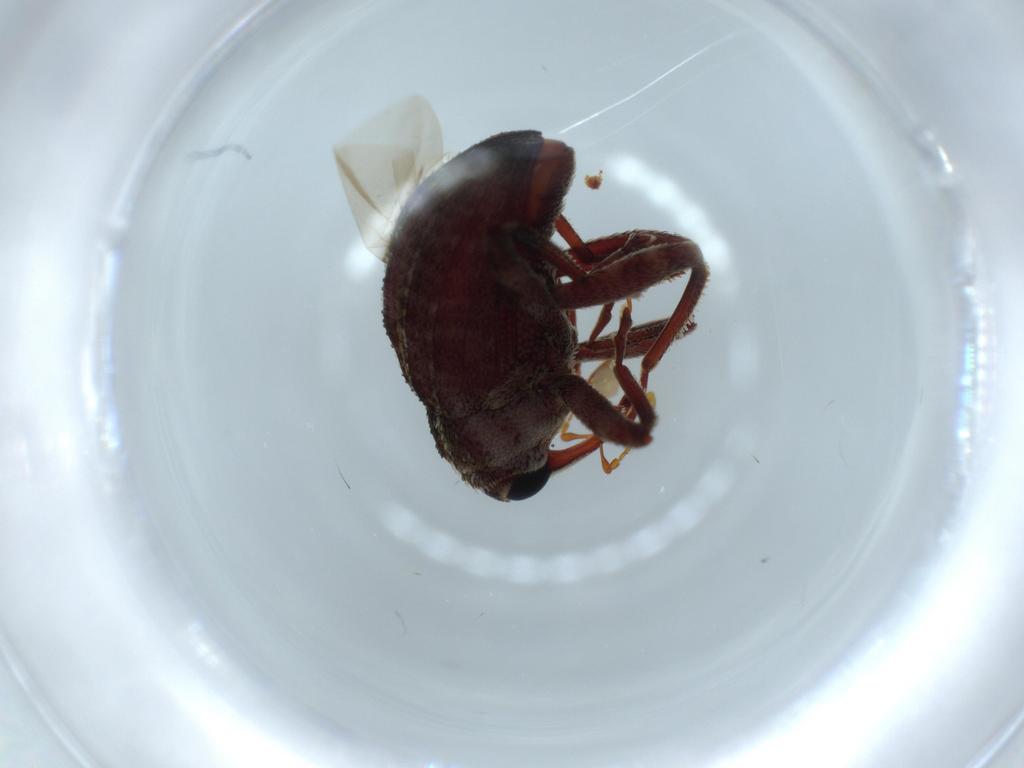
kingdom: Animalia
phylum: Arthropoda
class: Insecta
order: Coleoptera
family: Curculionidae
